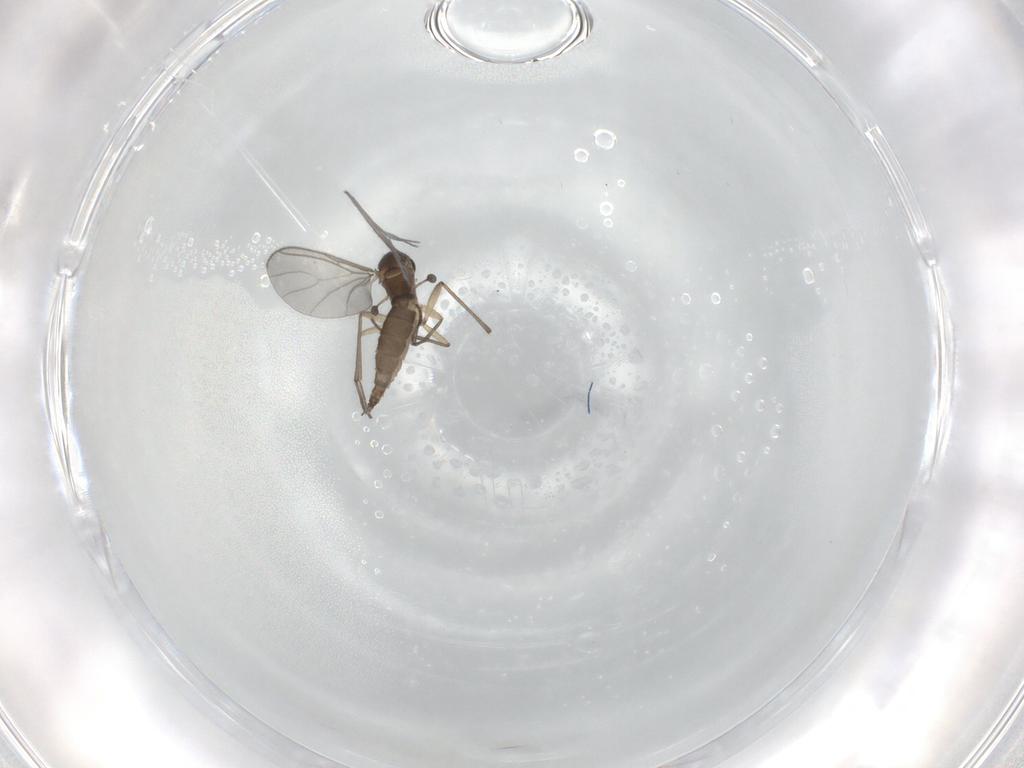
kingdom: Animalia
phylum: Arthropoda
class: Insecta
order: Diptera
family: Sciaridae
